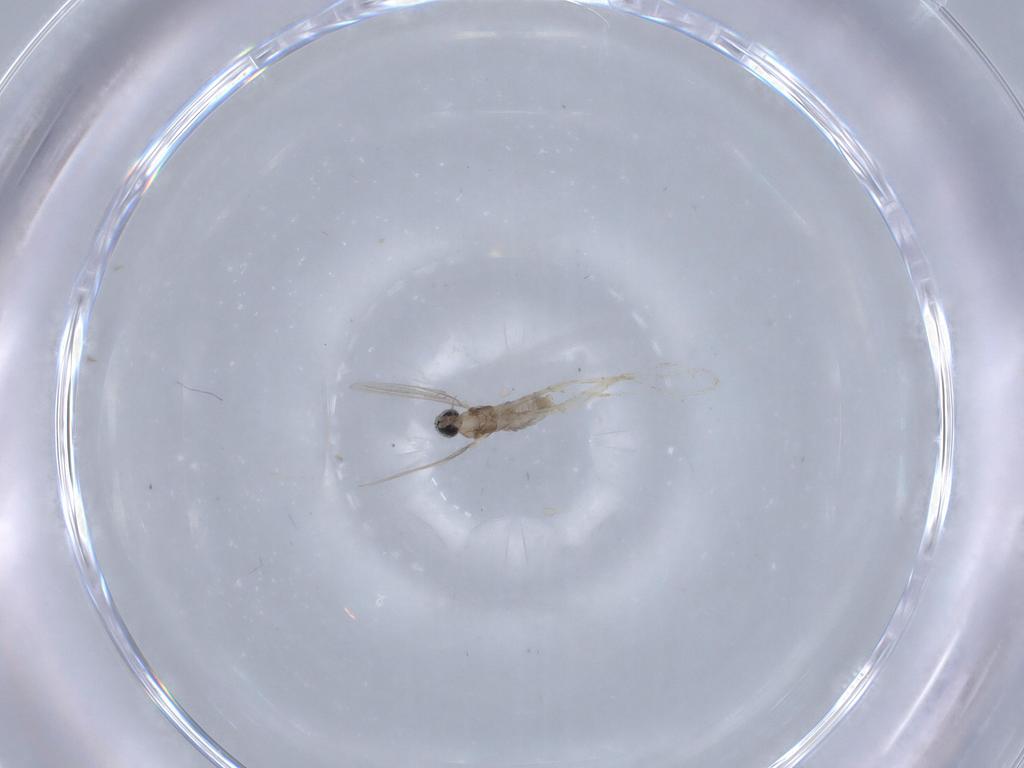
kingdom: Animalia
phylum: Arthropoda
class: Insecta
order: Diptera
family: Cecidomyiidae
